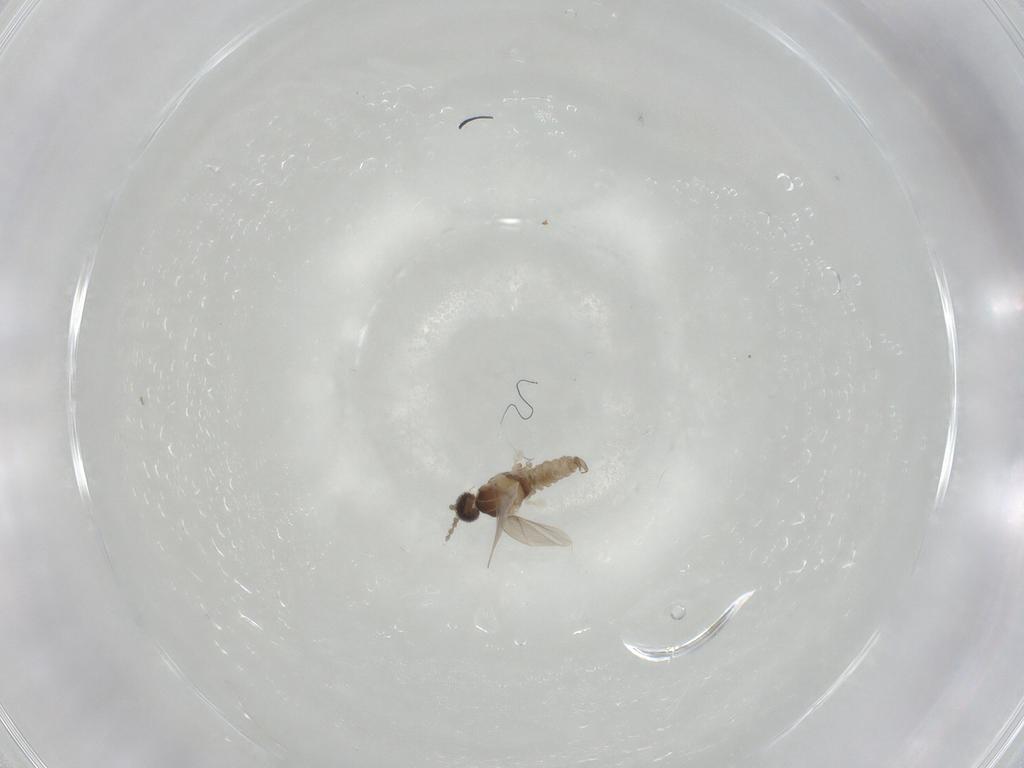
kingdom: Animalia
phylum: Arthropoda
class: Insecta
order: Diptera
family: Cecidomyiidae
